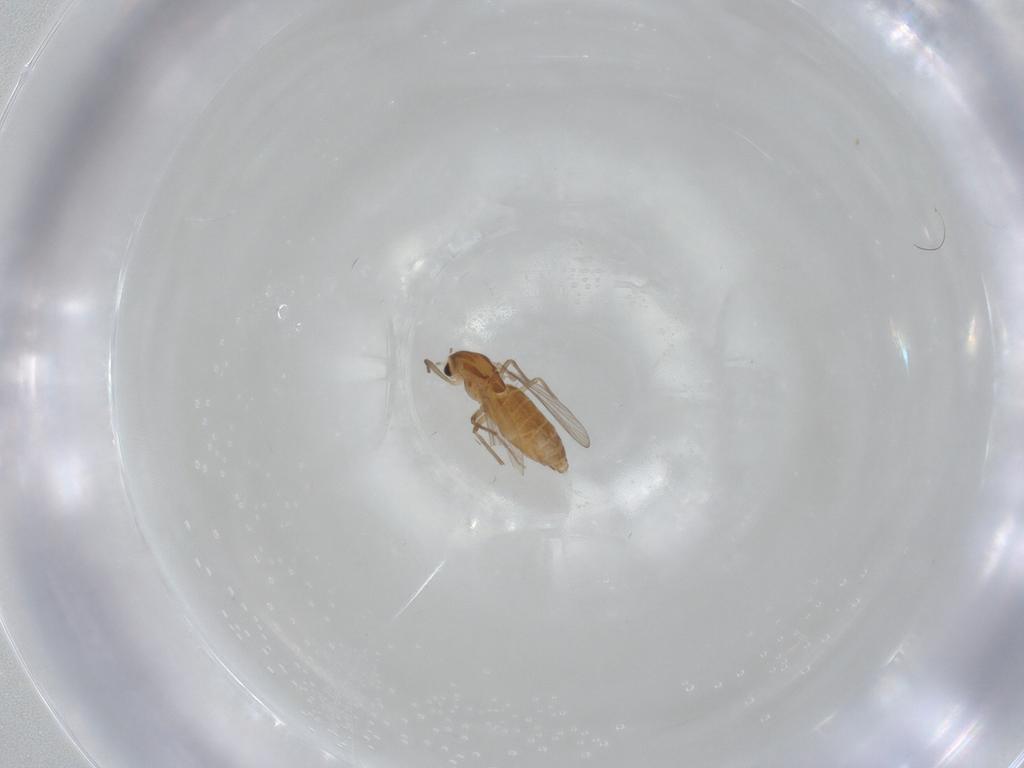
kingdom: Animalia
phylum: Arthropoda
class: Insecta
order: Diptera
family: Chironomidae
